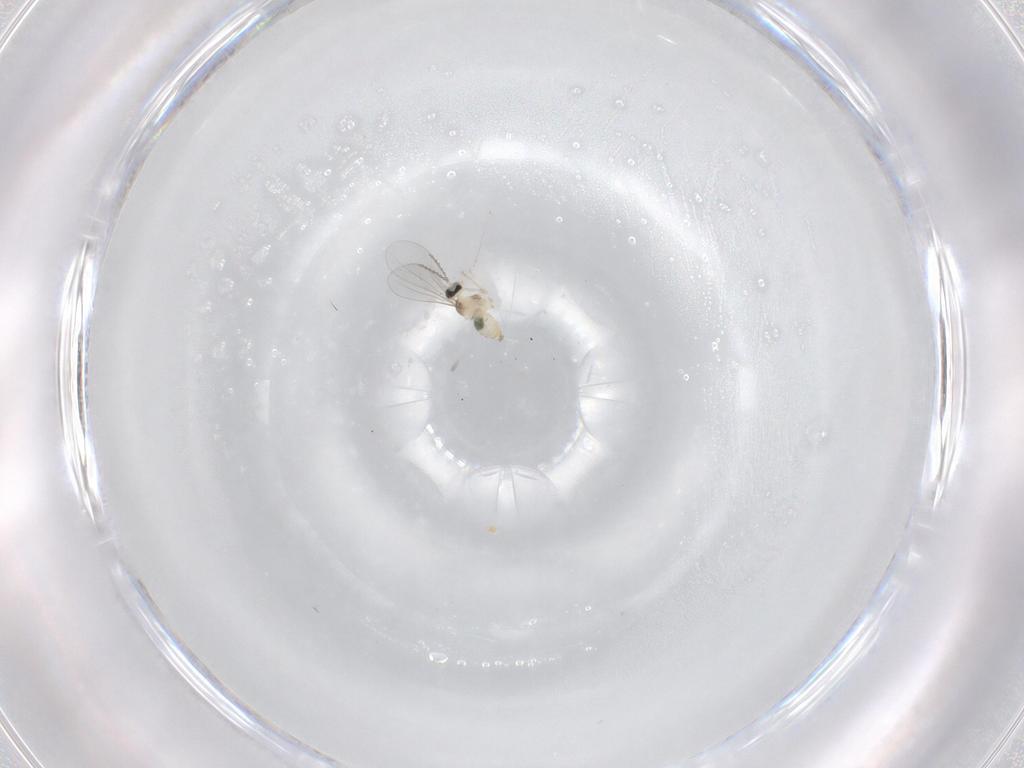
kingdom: Animalia
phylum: Arthropoda
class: Insecta
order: Diptera
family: Cecidomyiidae
